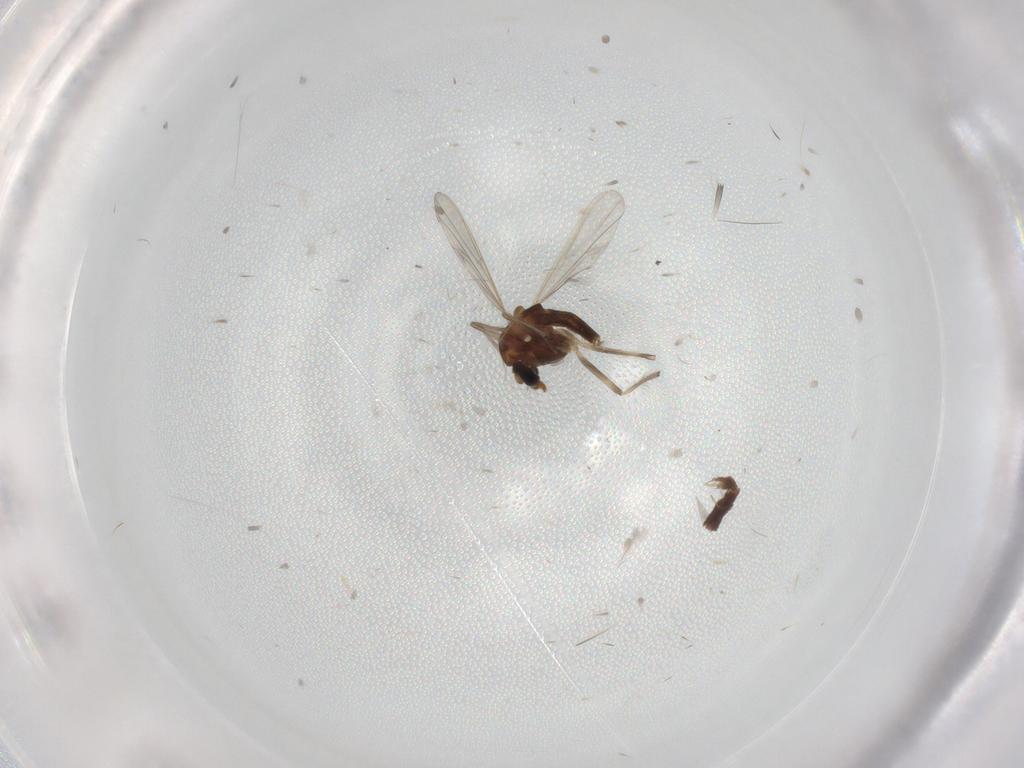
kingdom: Animalia
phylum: Arthropoda
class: Insecta
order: Diptera
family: Chironomidae
